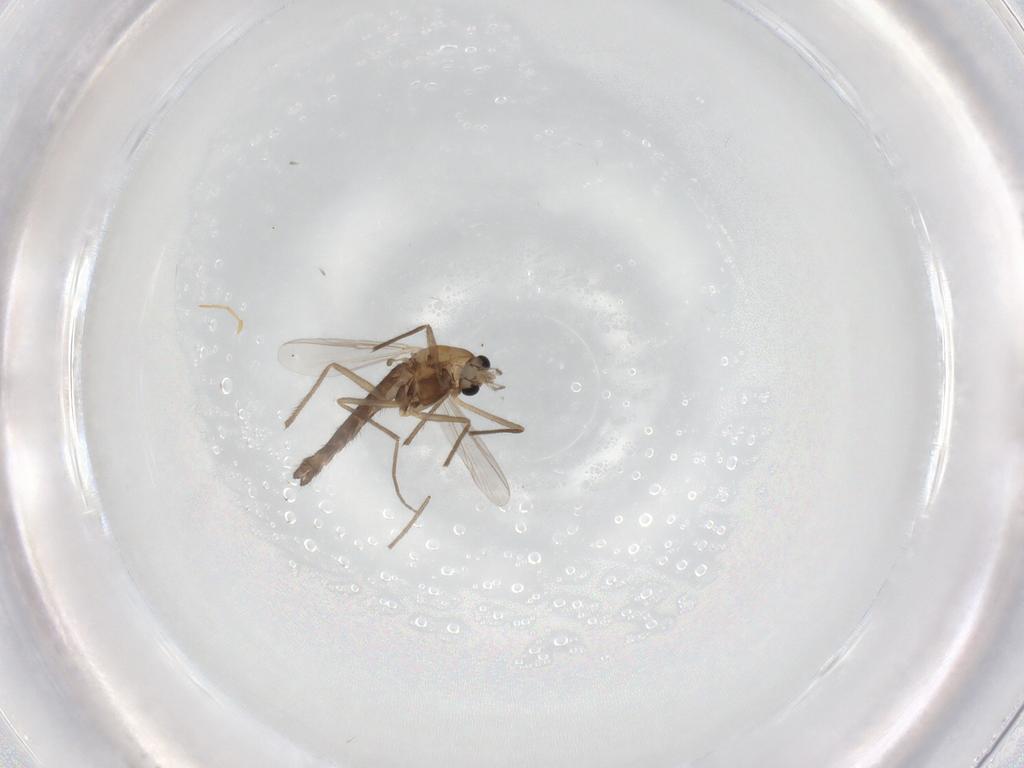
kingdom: Animalia
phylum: Arthropoda
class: Insecta
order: Diptera
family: Chironomidae
